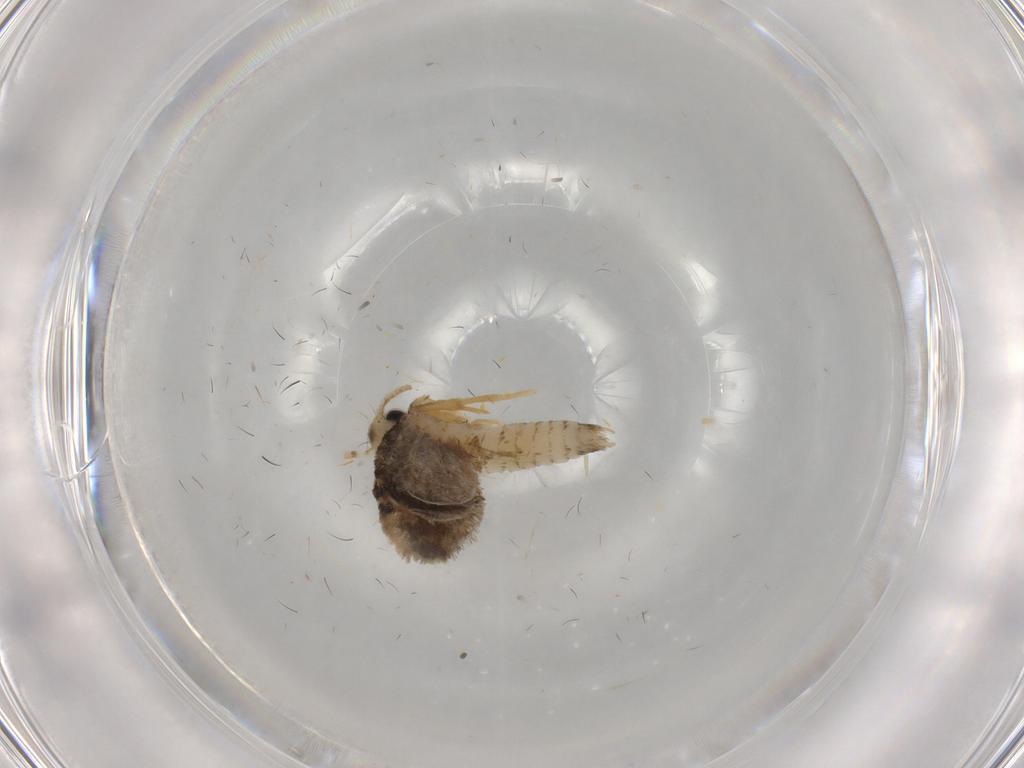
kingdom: Animalia
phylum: Arthropoda
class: Insecta
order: Lepidoptera
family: Psychidae
